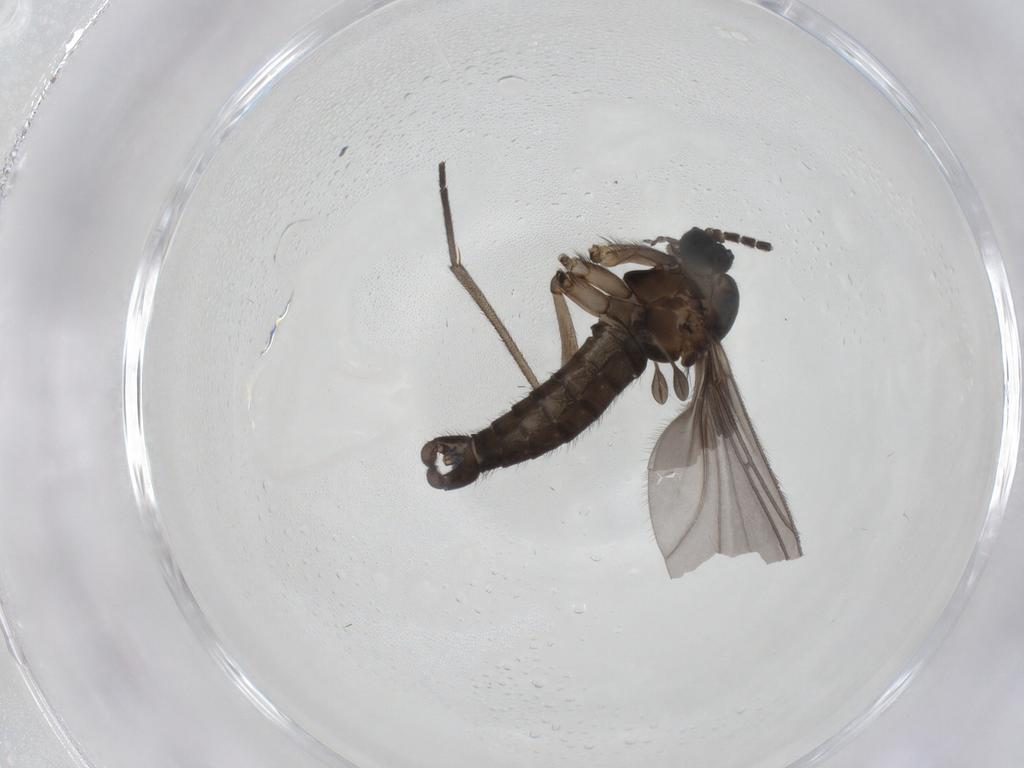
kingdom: Animalia
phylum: Arthropoda
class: Insecta
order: Diptera
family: Sciaridae
